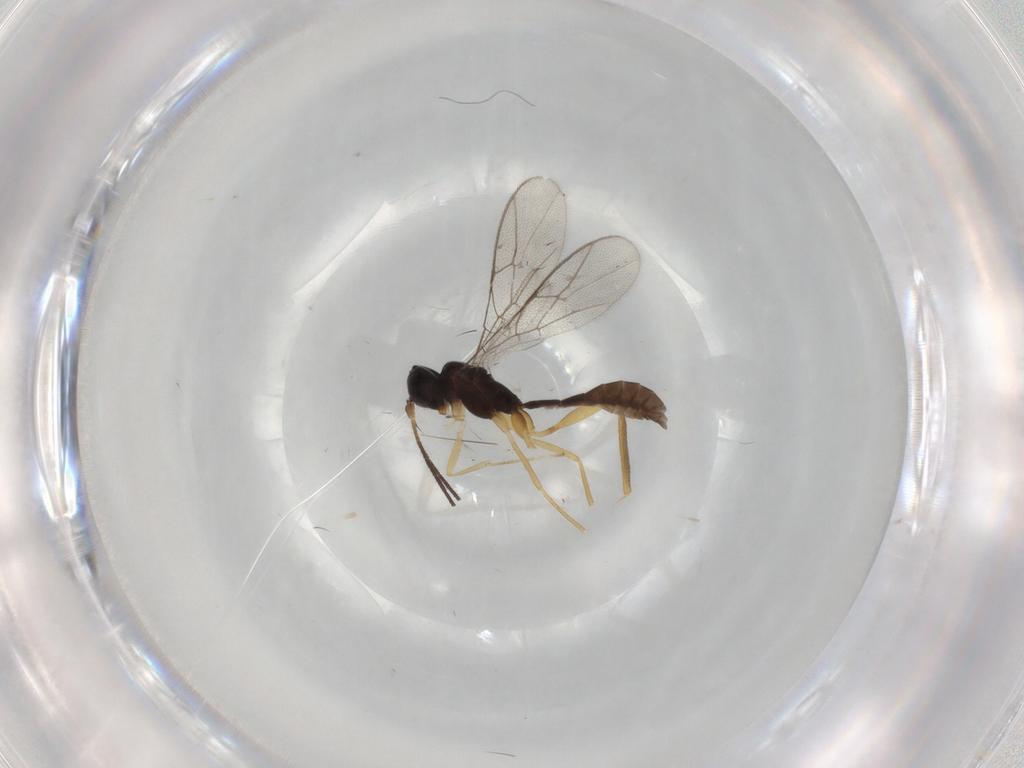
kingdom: Animalia
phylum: Arthropoda
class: Insecta
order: Hymenoptera
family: Ichneumonidae
